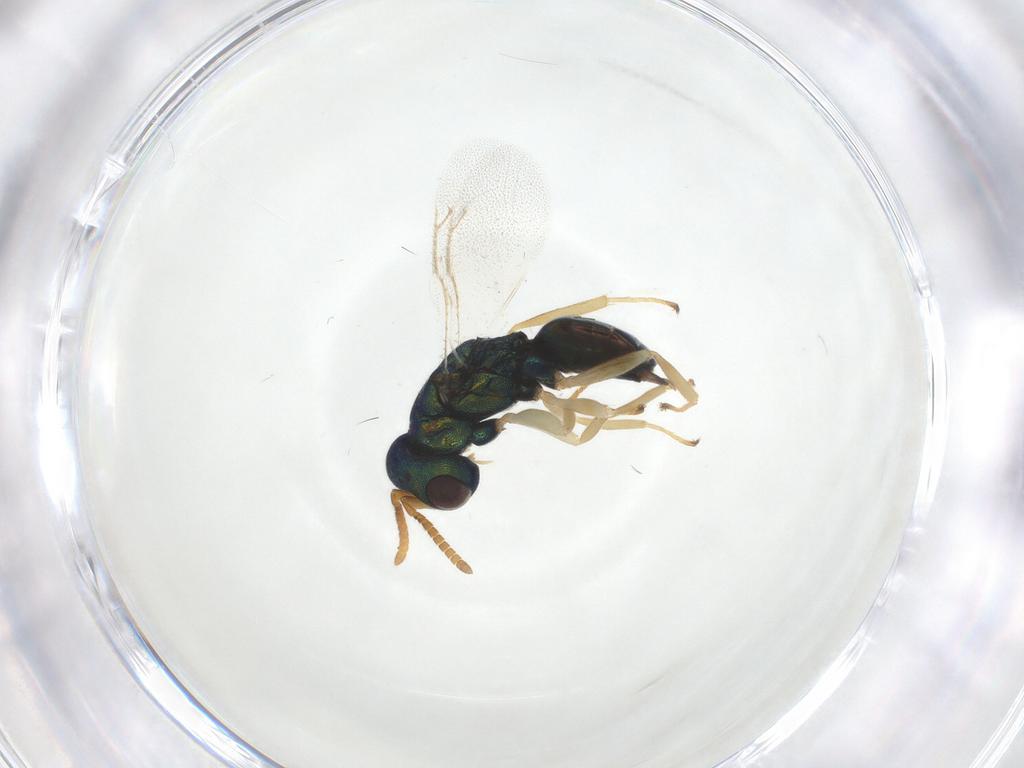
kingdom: Animalia
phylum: Arthropoda
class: Insecta
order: Hymenoptera
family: Pteromalidae
